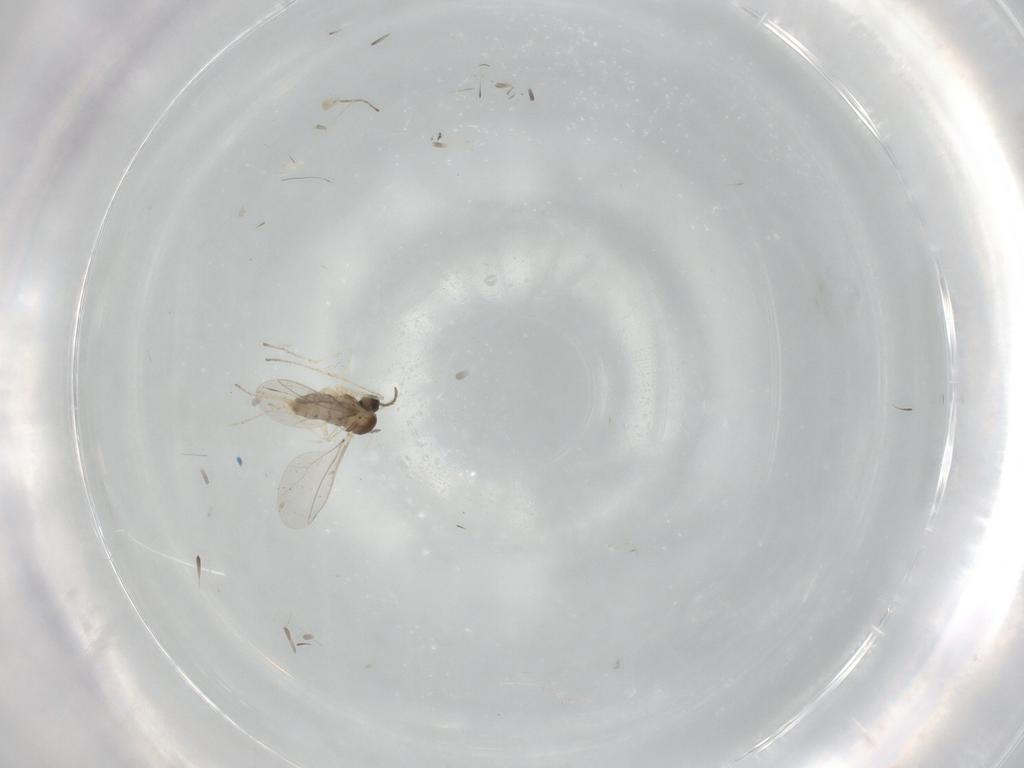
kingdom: Animalia
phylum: Arthropoda
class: Insecta
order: Diptera
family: Cecidomyiidae
